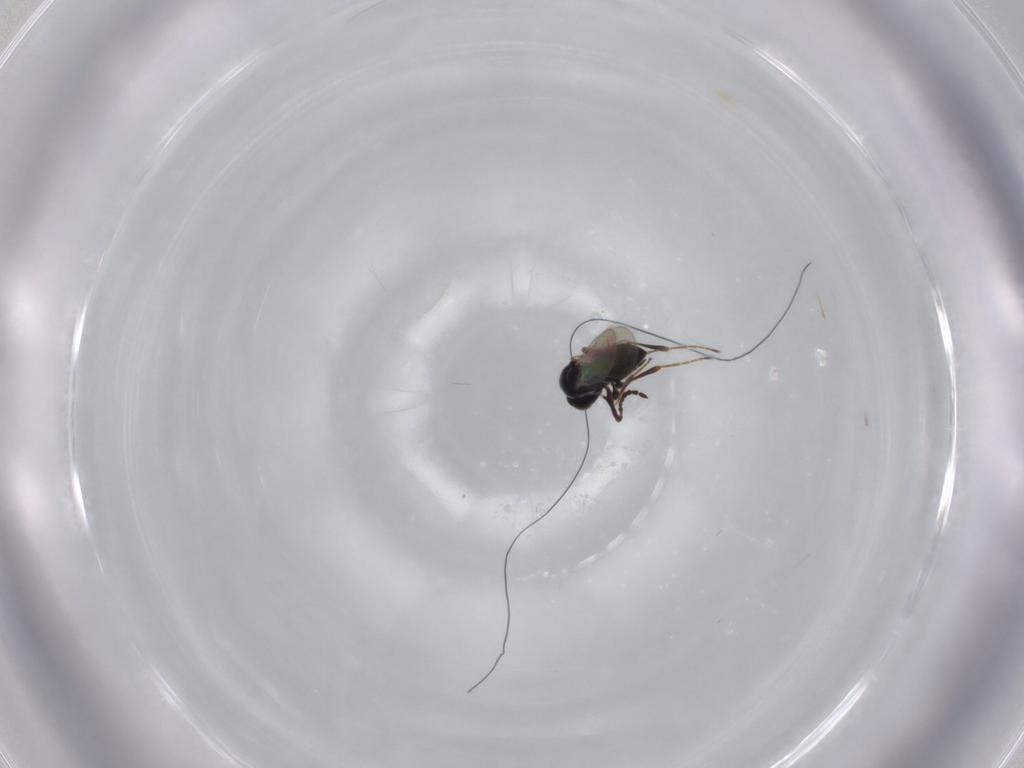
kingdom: Animalia
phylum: Arthropoda
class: Insecta
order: Hymenoptera
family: Platygastridae
